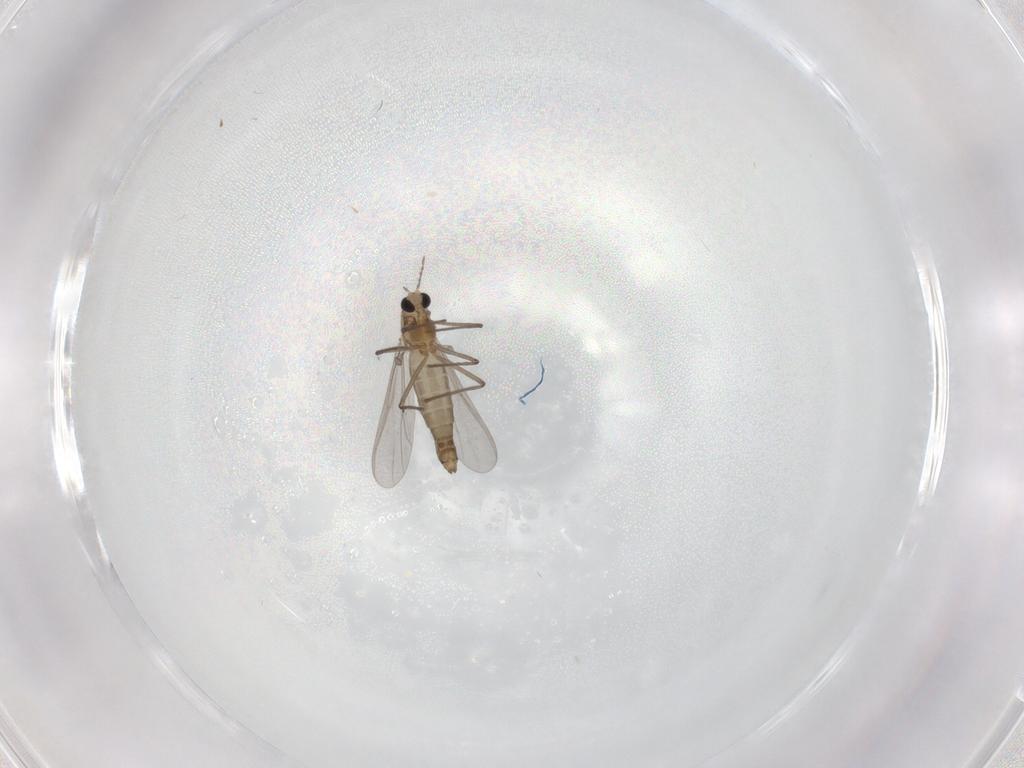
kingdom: Animalia
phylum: Arthropoda
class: Insecta
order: Diptera
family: Chironomidae
